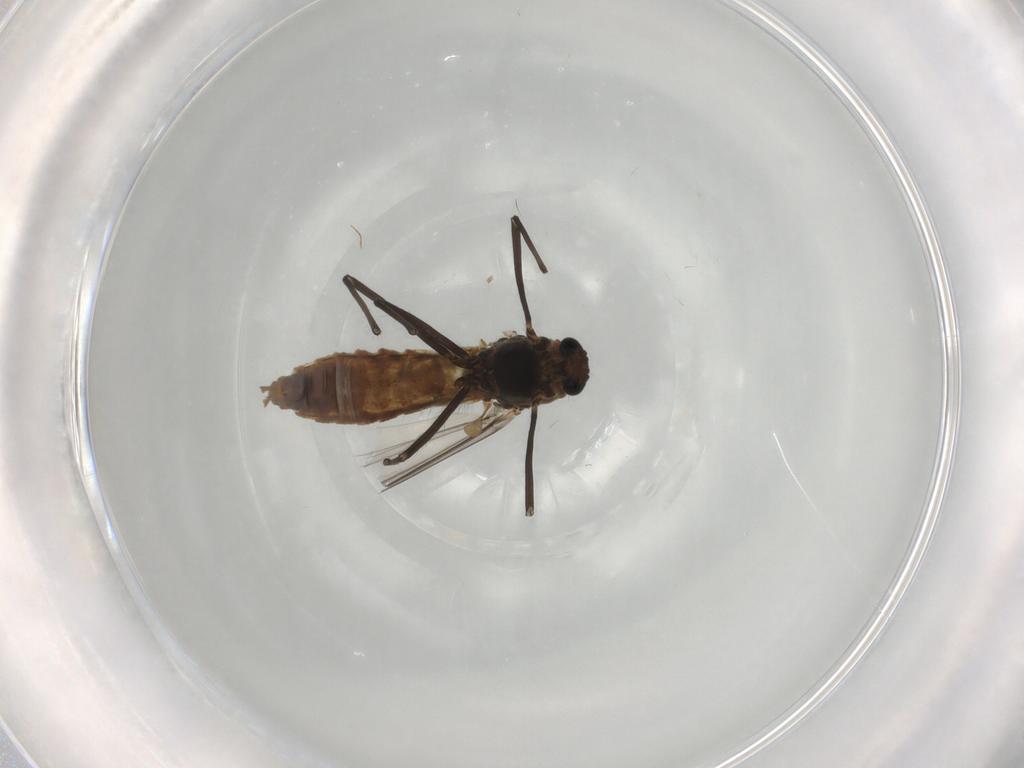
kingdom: Animalia
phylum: Arthropoda
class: Insecta
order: Diptera
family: Chironomidae
